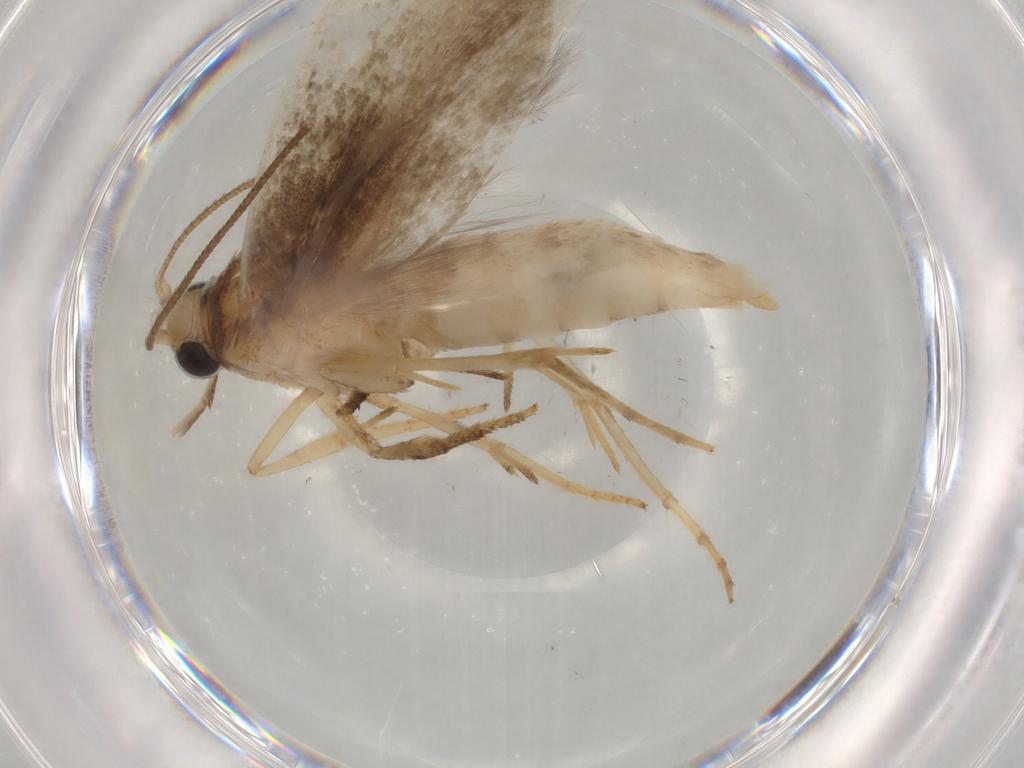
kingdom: Animalia
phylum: Arthropoda
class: Insecta
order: Lepidoptera
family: Yponomeutidae
